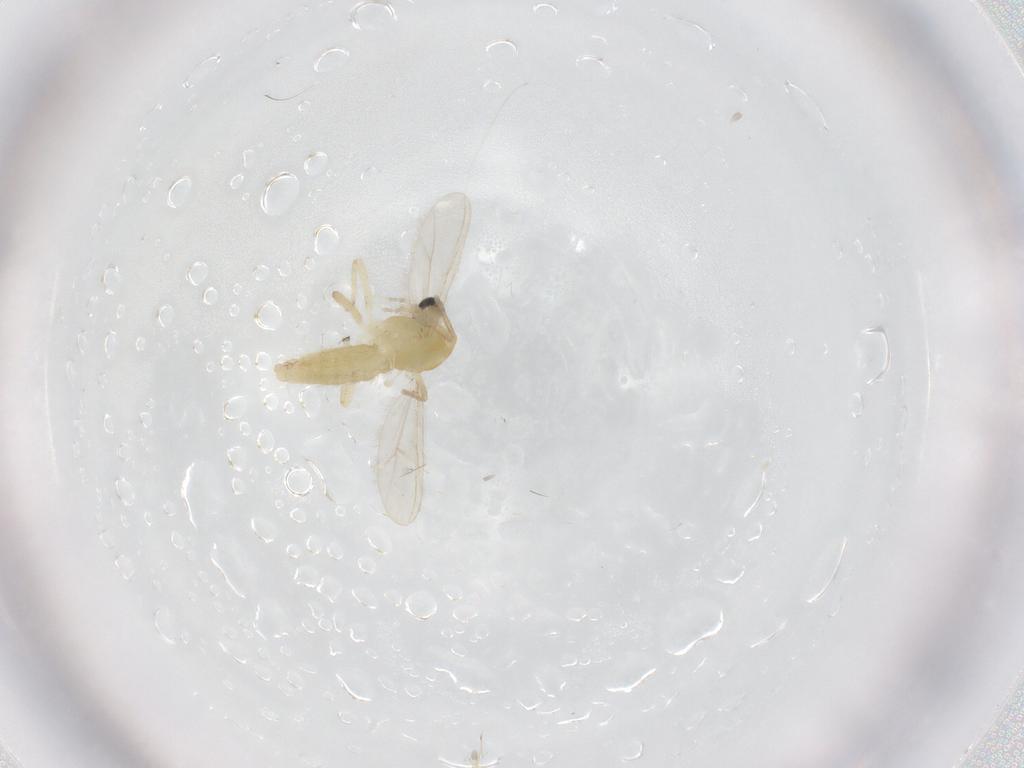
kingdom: Animalia
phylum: Arthropoda
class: Insecta
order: Diptera
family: Chironomidae
